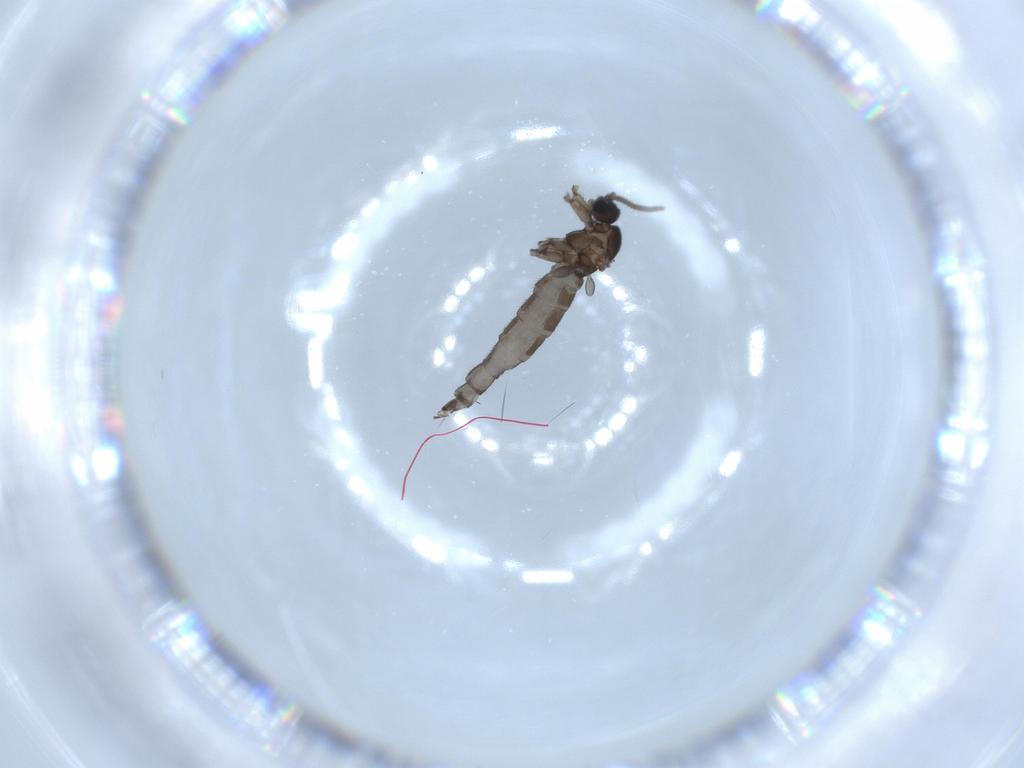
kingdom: Animalia
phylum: Arthropoda
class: Insecta
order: Diptera
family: Sciaridae
